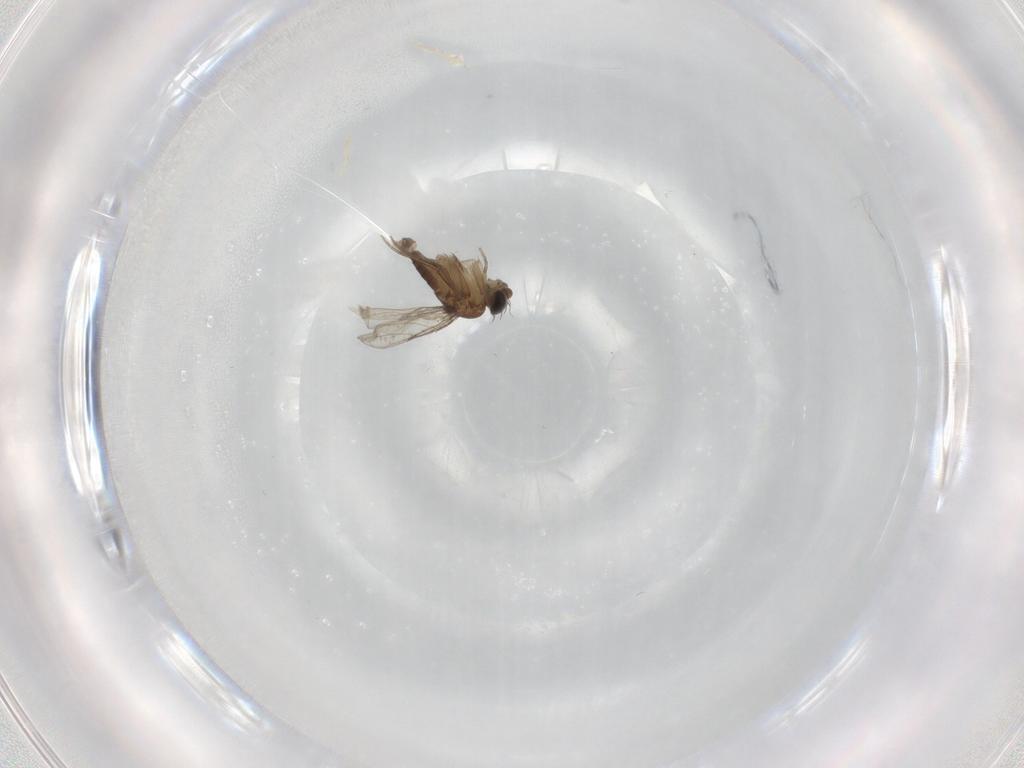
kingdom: Animalia
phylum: Arthropoda
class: Insecta
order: Diptera
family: Phoridae
